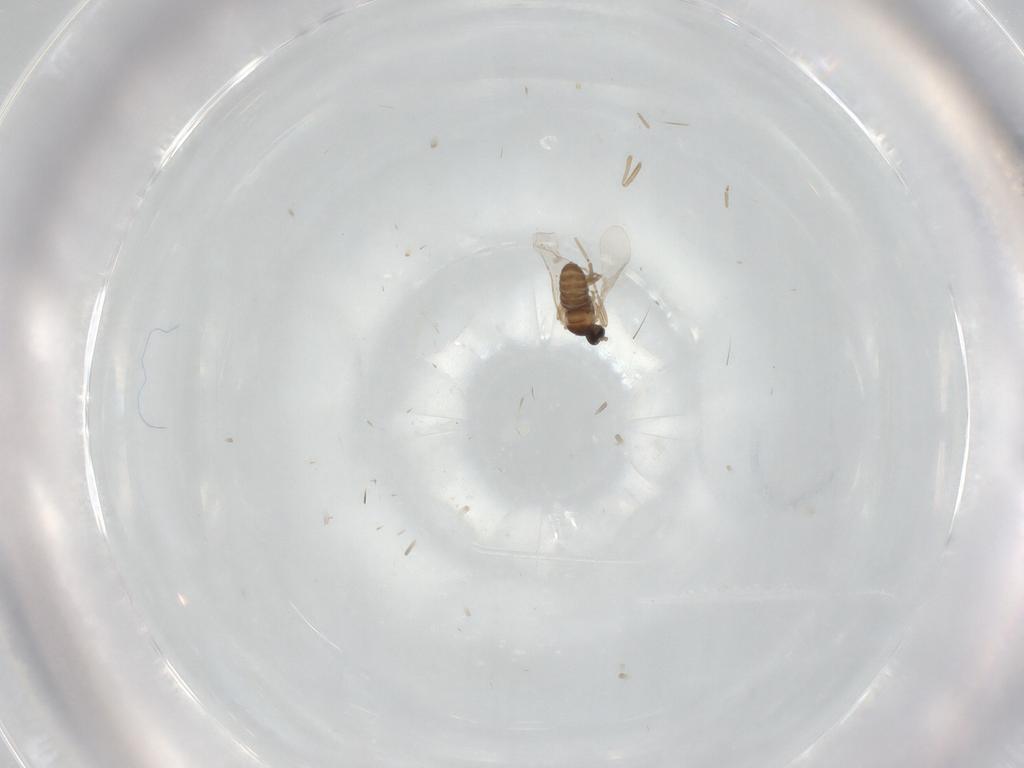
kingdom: Animalia
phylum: Arthropoda
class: Insecta
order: Diptera
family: Cecidomyiidae
